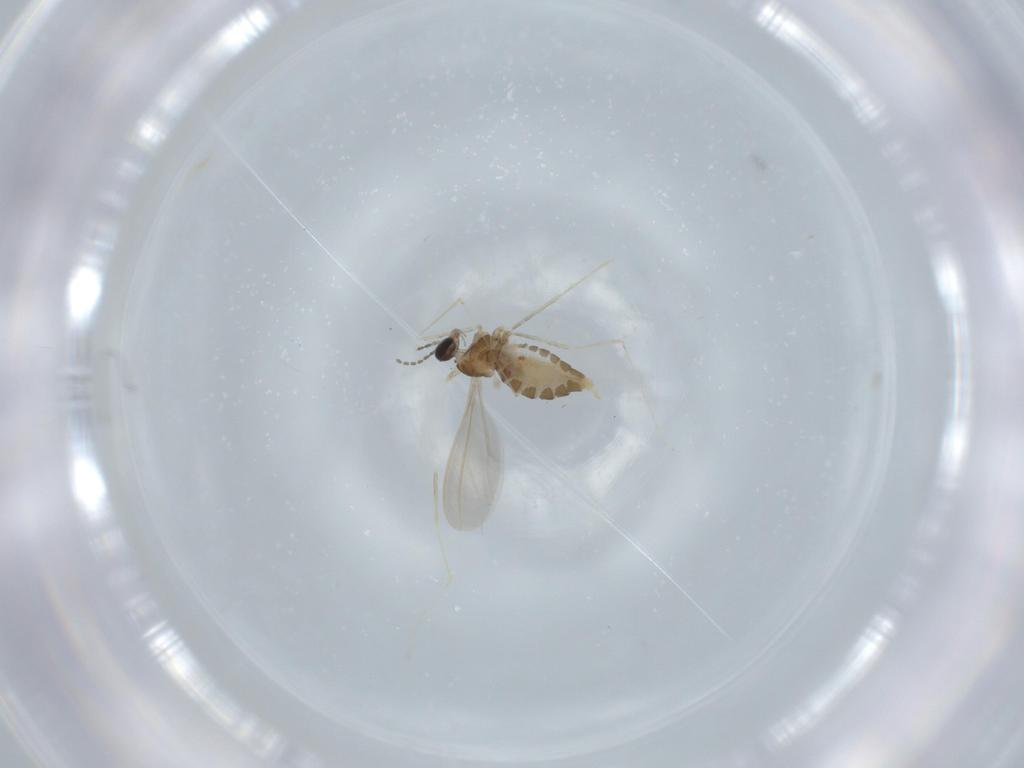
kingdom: Animalia
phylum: Arthropoda
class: Insecta
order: Diptera
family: Cecidomyiidae
